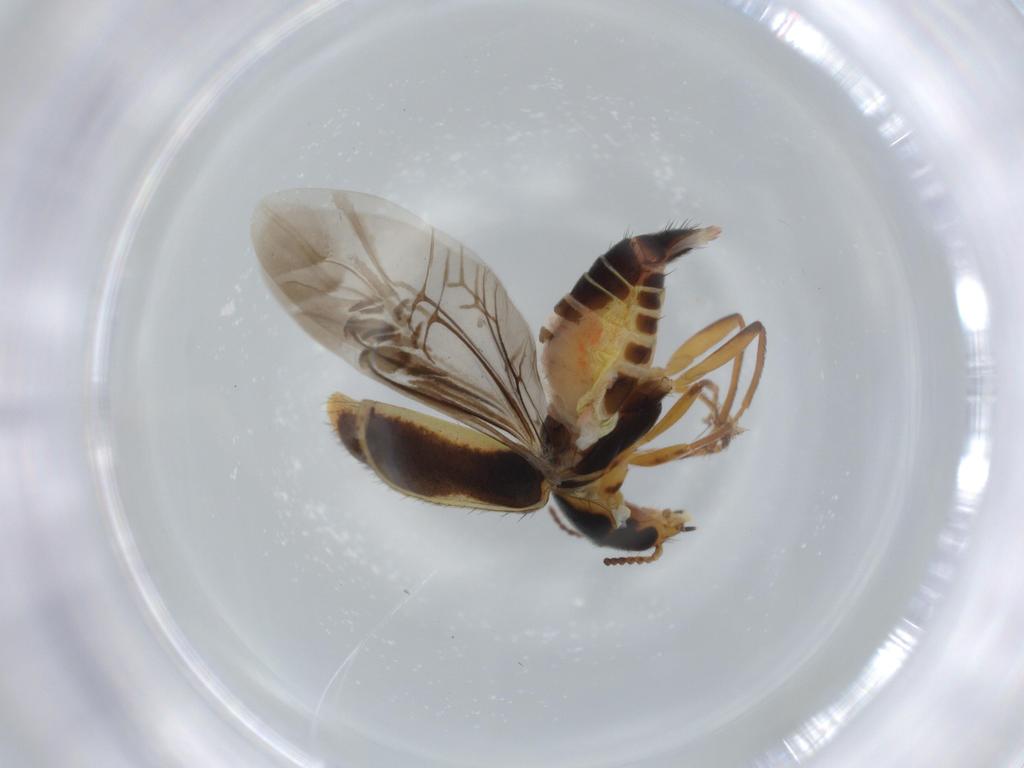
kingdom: Animalia
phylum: Arthropoda
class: Insecta
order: Coleoptera
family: Melyridae
